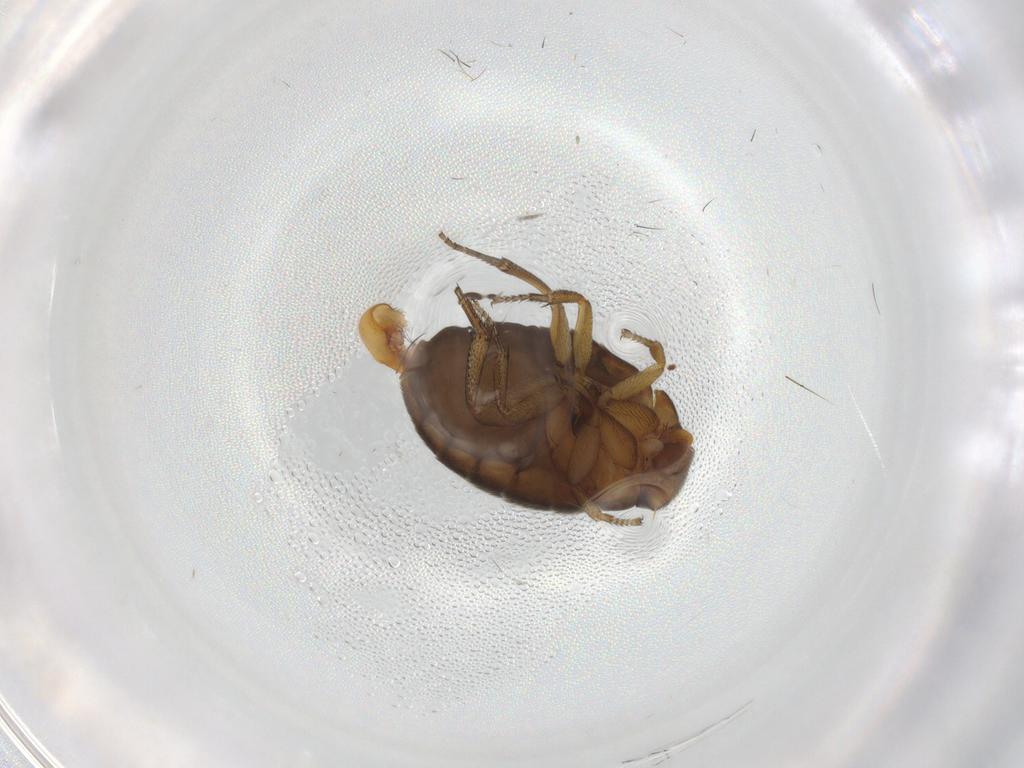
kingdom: Animalia
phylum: Arthropoda
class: Insecta
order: Diptera
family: Phoridae
